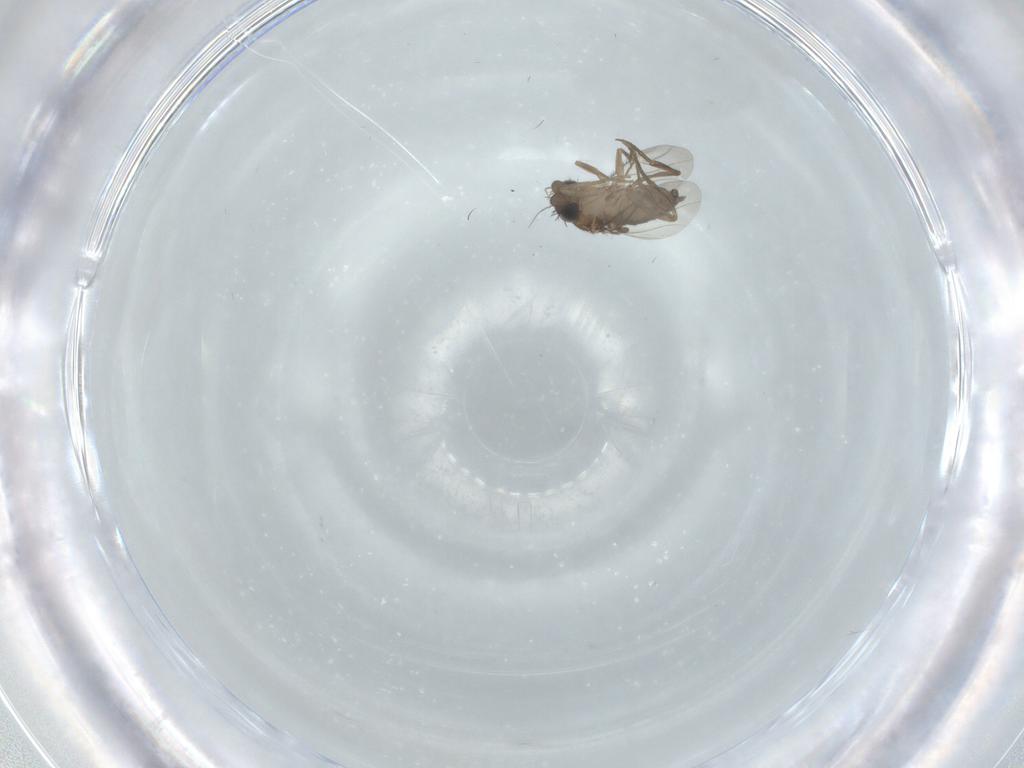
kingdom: Animalia
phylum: Arthropoda
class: Insecta
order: Diptera
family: Phoridae
